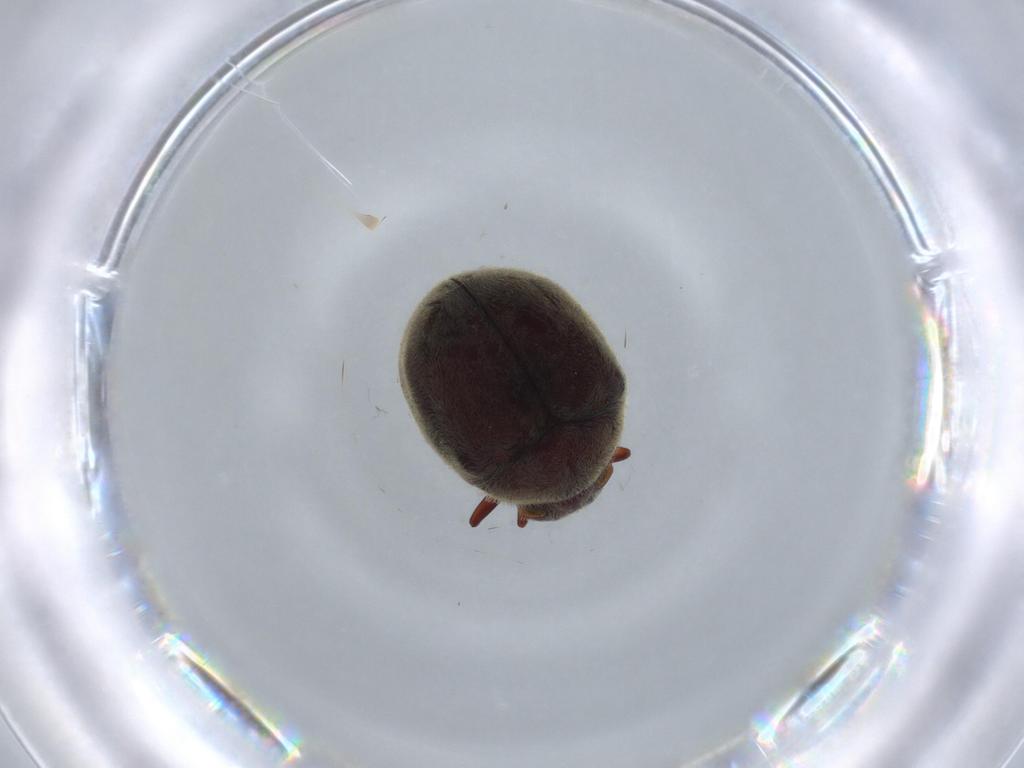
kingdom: Animalia
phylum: Arthropoda
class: Insecta
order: Coleoptera
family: Ptinidae
